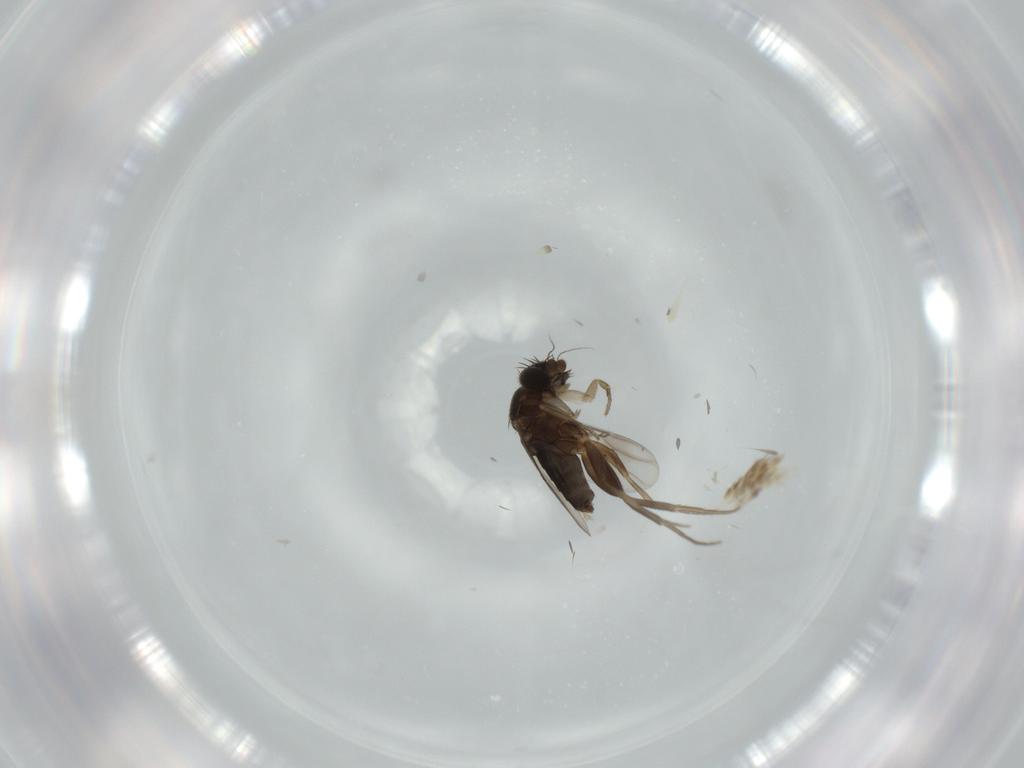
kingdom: Animalia
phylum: Arthropoda
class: Insecta
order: Diptera
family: Phoridae
